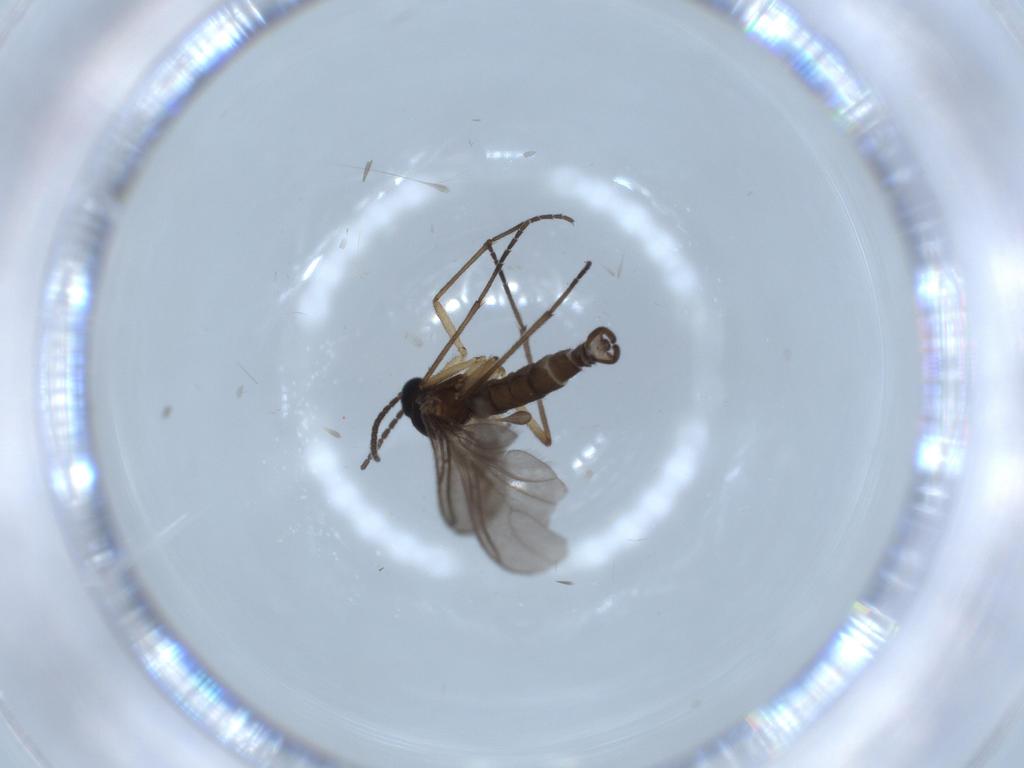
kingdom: Animalia
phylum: Arthropoda
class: Insecta
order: Diptera
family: Sciaridae
